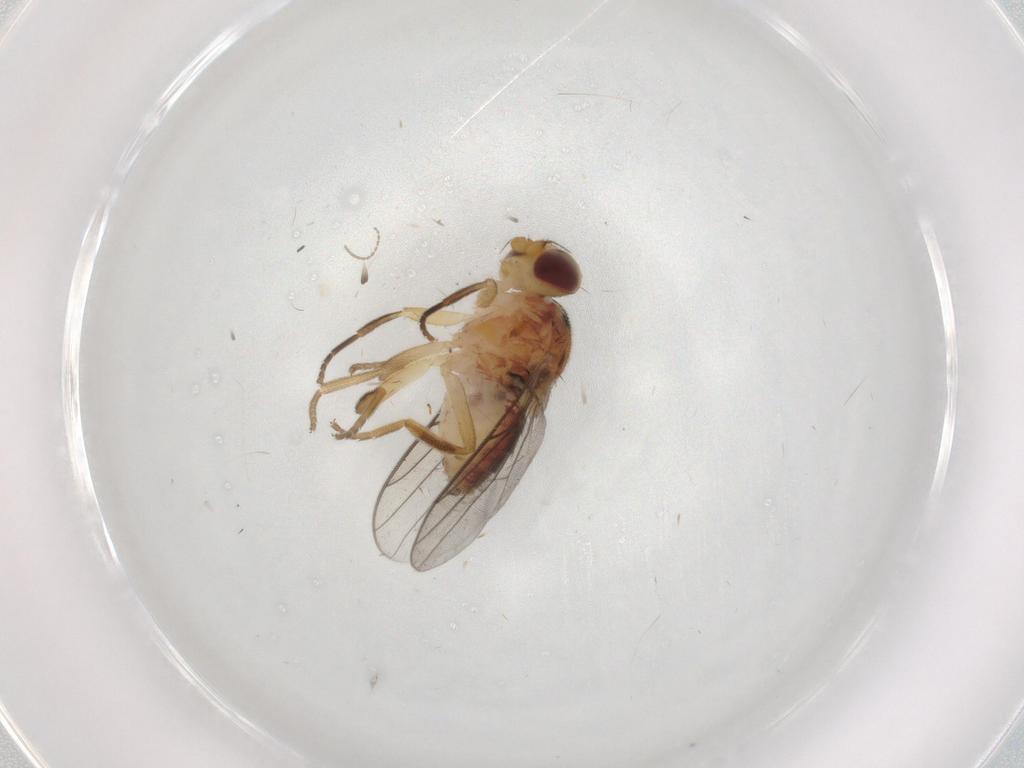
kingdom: Animalia
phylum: Arthropoda
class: Insecta
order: Diptera
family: Chloropidae
